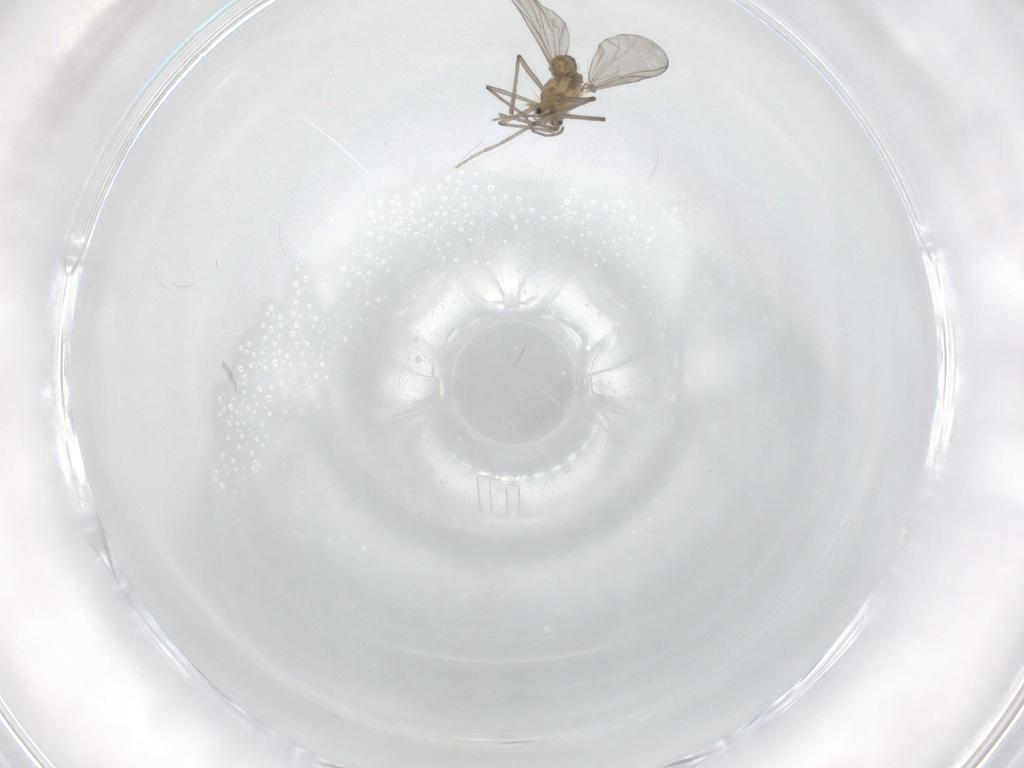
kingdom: Animalia
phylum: Arthropoda
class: Insecta
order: Diptera
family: Chironomidae
